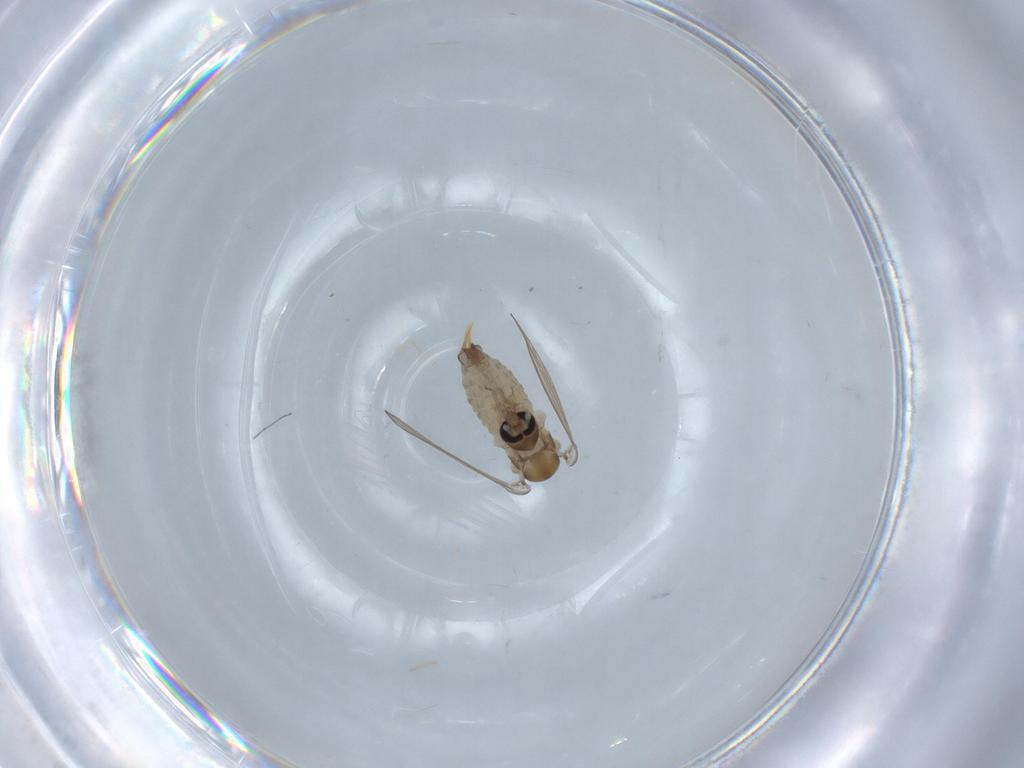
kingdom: Animalia
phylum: Arthropoda
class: Insecta
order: Diptera
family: Psychodidae
